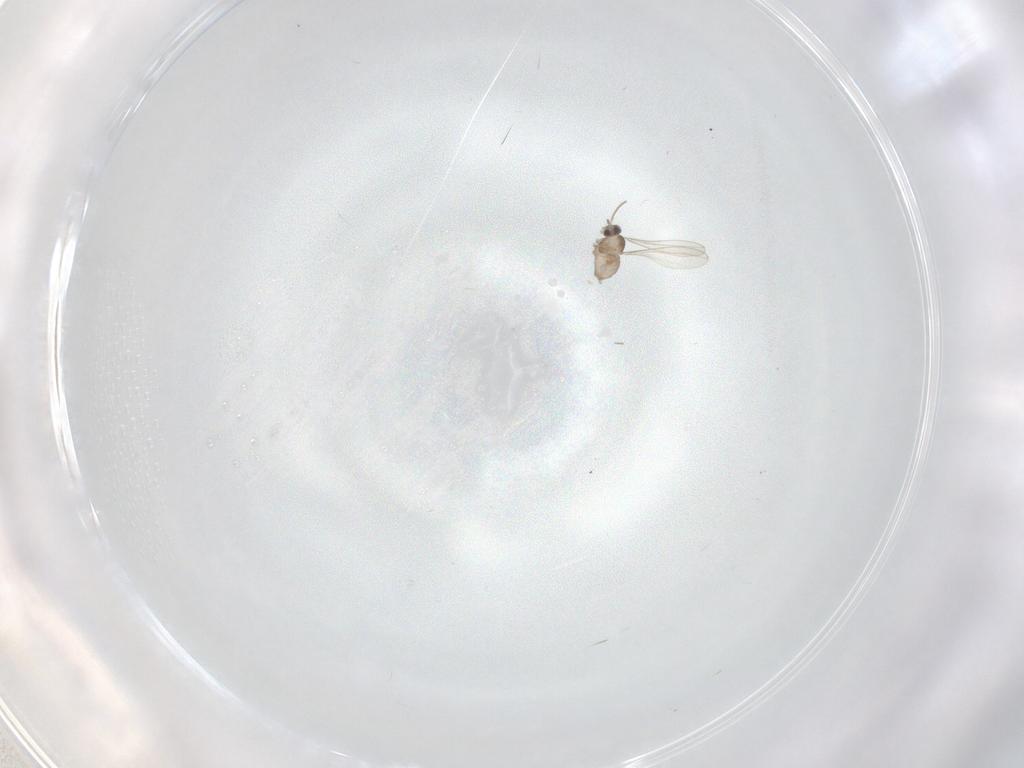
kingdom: Animalia
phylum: Arthropoda
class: Insecta
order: Diptera
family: Cecidomyiidae
